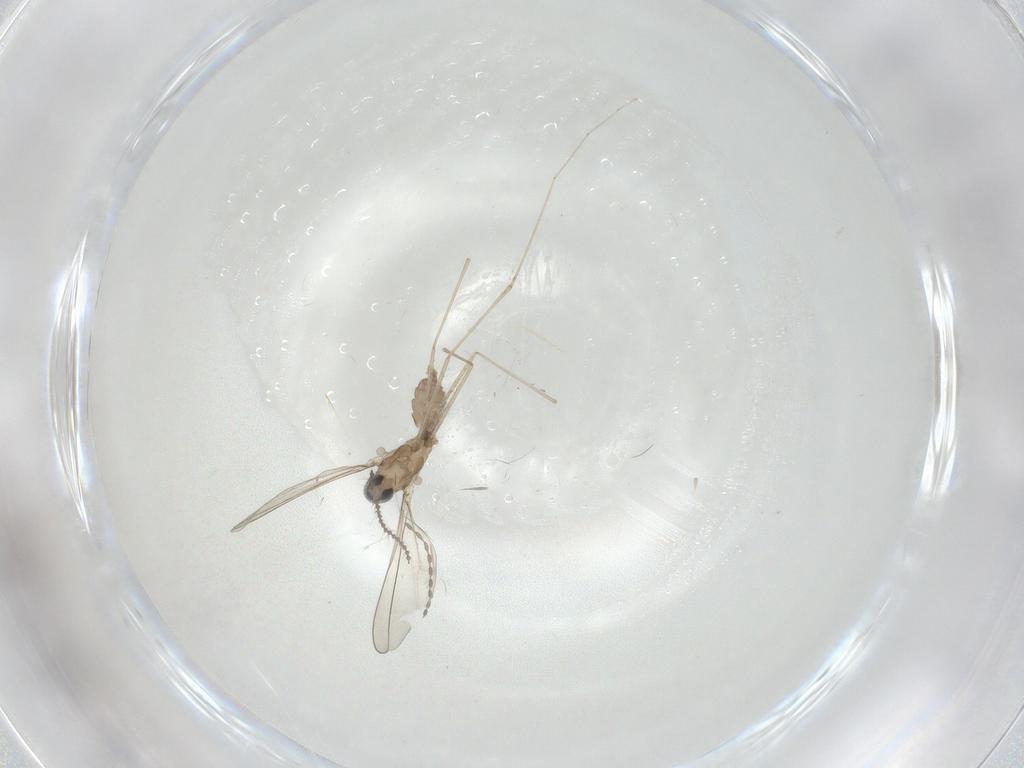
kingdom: Animalia
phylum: Arthropoda
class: Insecta
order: Diptera
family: Cecidomyiidae
